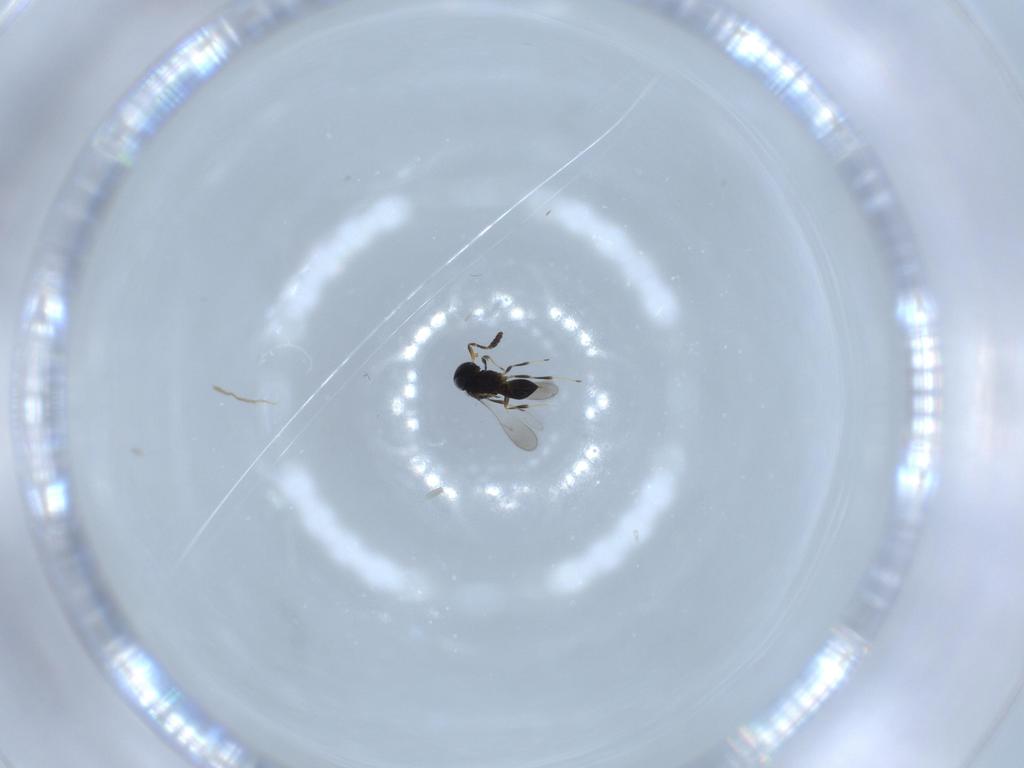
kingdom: Animalia
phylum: Arthropoda
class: Insecta
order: Hymenoptera
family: Scelionidae
